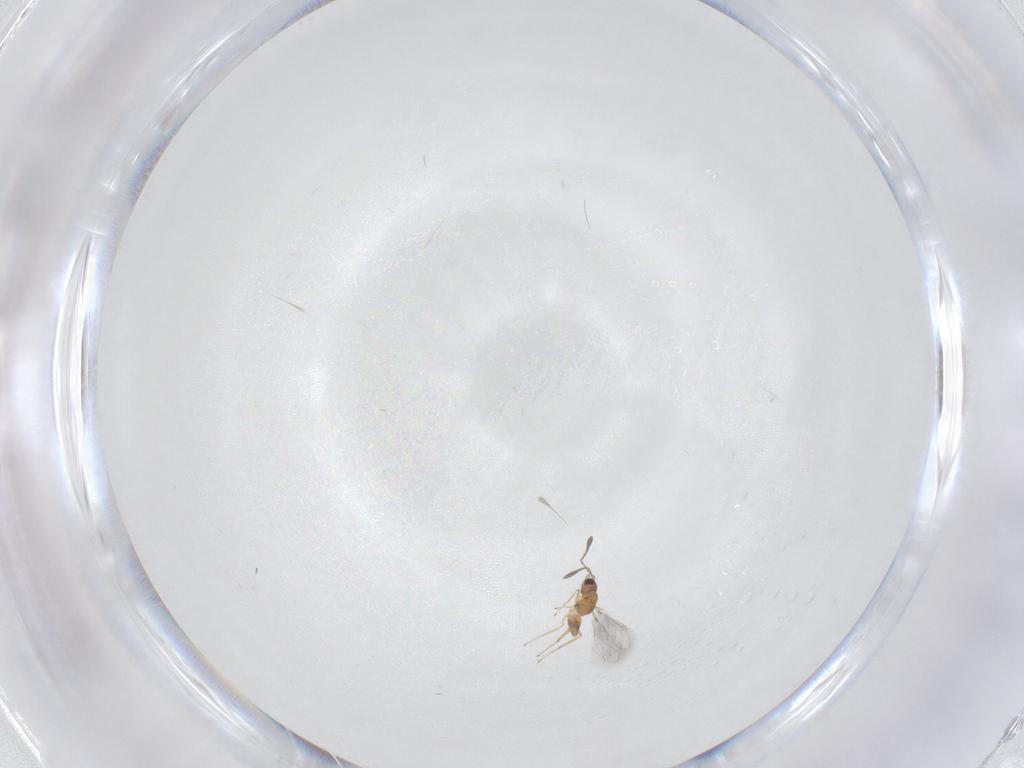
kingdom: Animalia
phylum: Arthropoda
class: Insecta
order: Hymenoptera
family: Mymaridae
